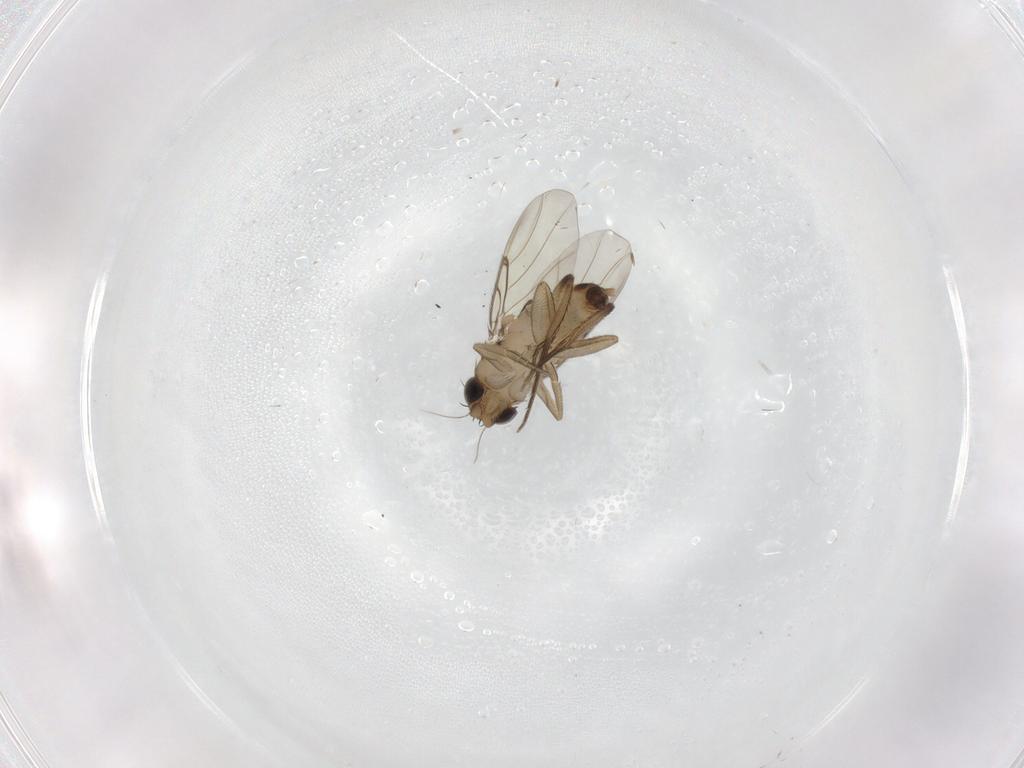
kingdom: Animalia
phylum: Arthropoda
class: Insecta
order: Diptera
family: Phoridae
